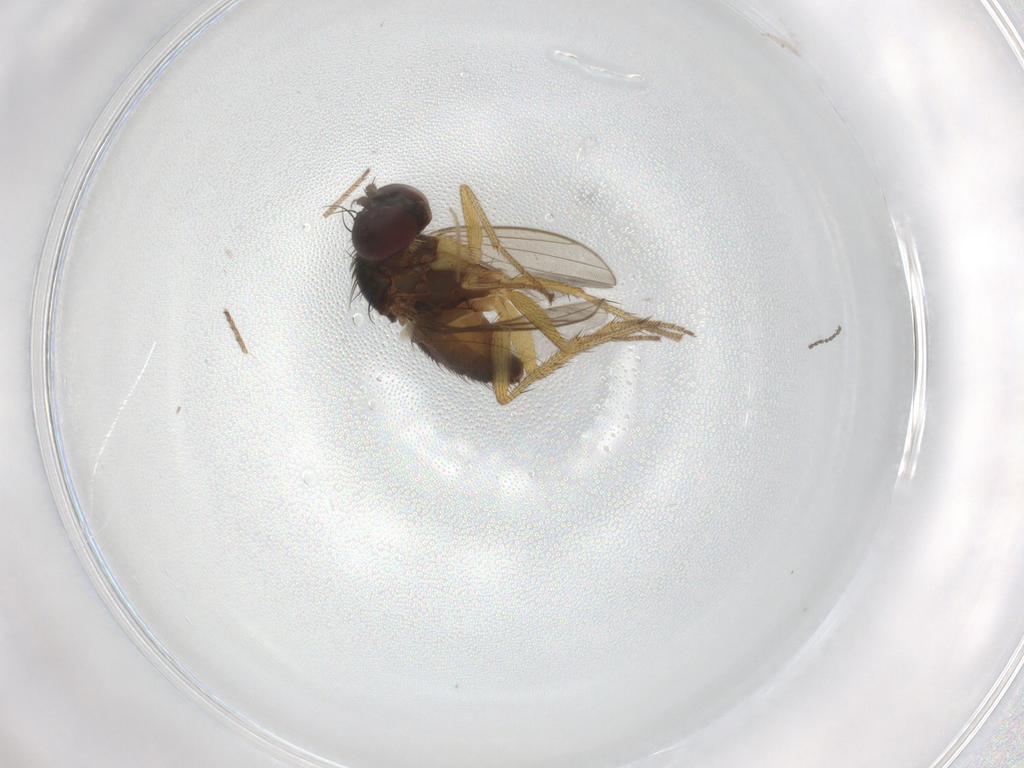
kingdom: Animalia
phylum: Arthropoda
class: Insecta
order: Diptera
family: Chironomidae
